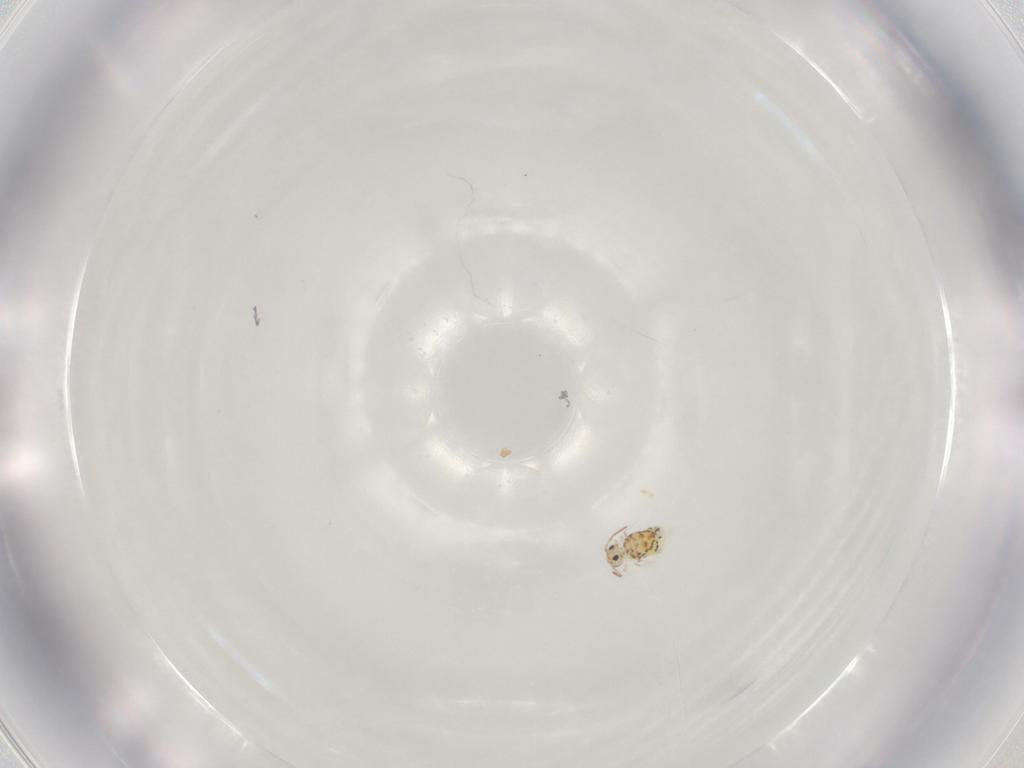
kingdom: Animalia
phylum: Arthropoda
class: Collembola
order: Symphypleona
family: Bourletiellidae
